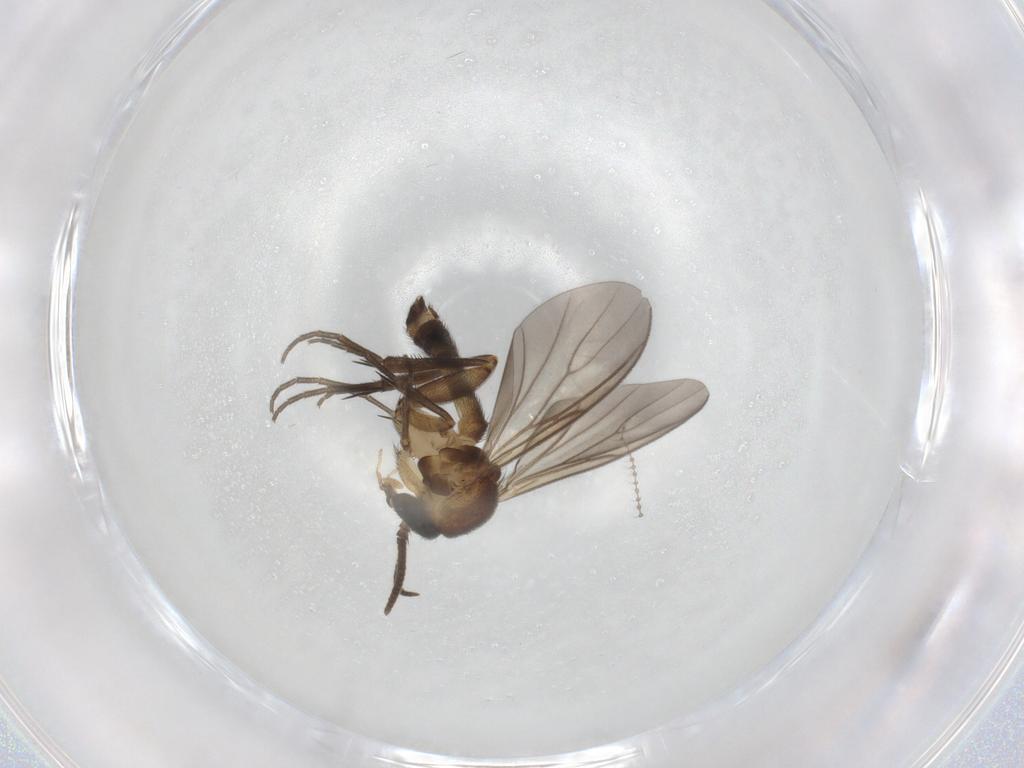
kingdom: Animalia
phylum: Arthropoda
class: Insecta
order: Diptera
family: Mycetophilidae
